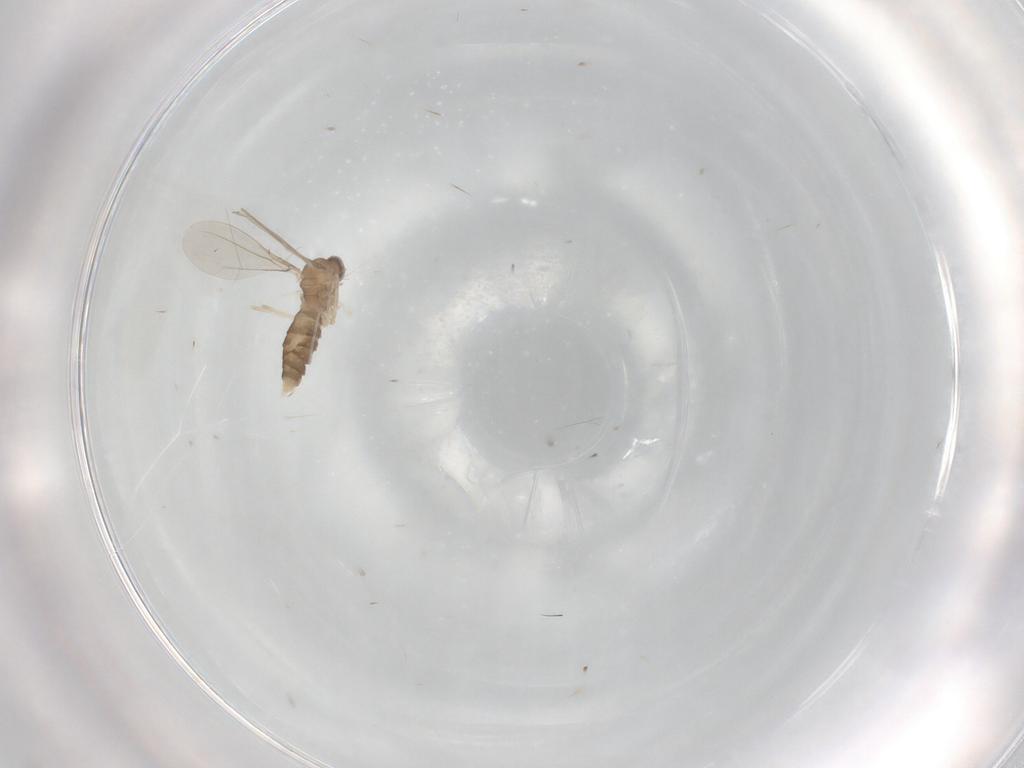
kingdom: Animalia
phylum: Arthropoda
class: Insecta
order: Diptera
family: Cecidomyiidae
